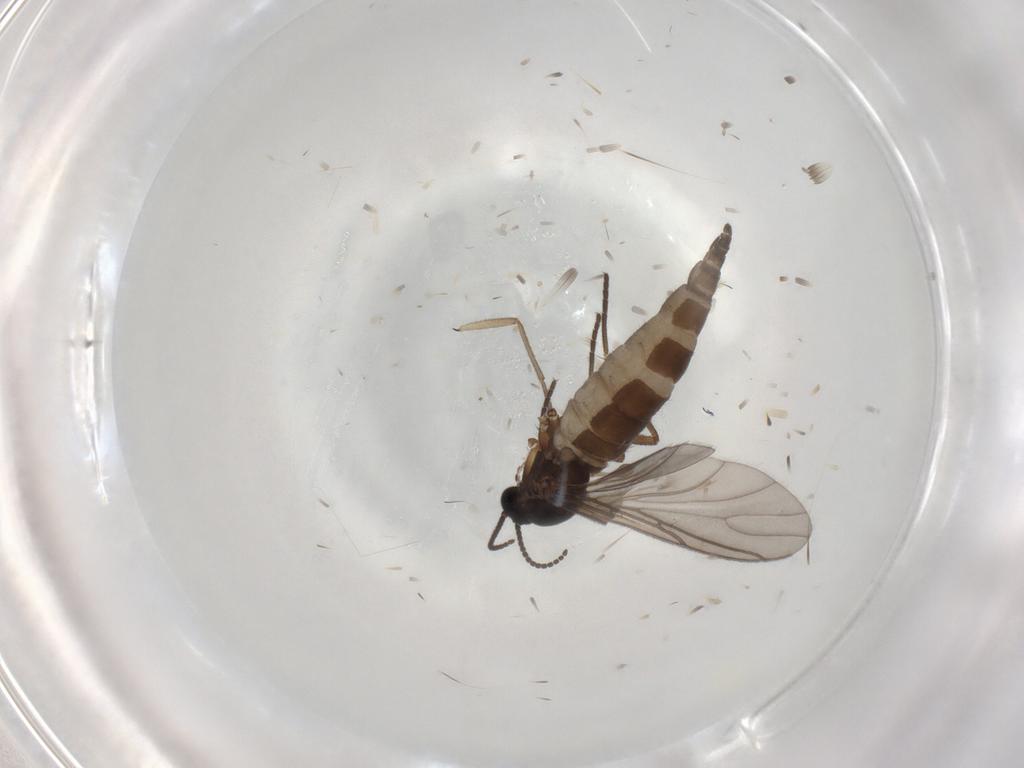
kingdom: Animalia
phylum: Arthropoda
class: Insecta
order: Diptera
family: Sciaridae
